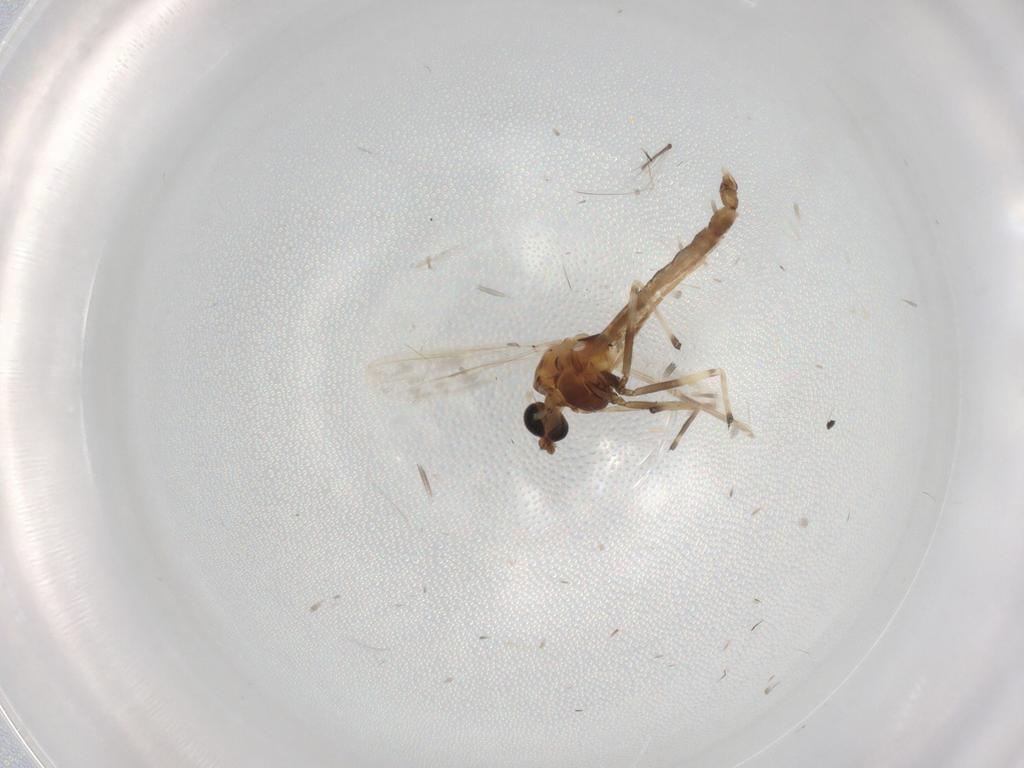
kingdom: Animalia
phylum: Arthropoda
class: Insecta
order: Diptera
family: Chironomidae
